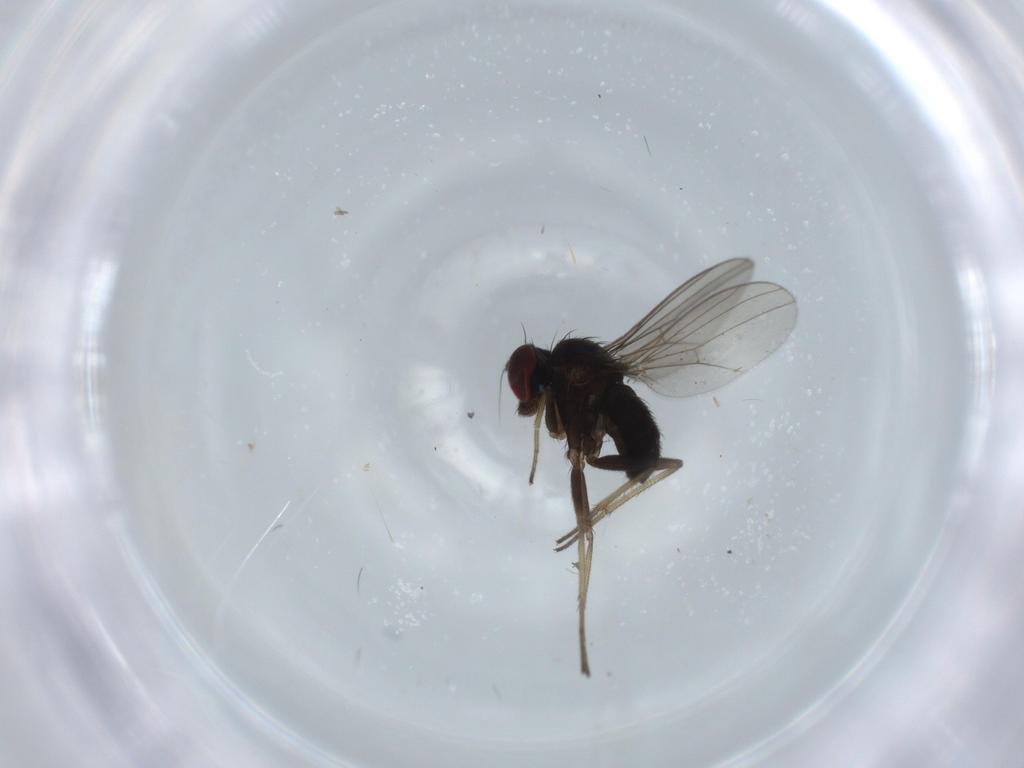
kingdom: Animalia
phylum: Arthropoda
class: Insecta
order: Diptera
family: Dolichopodidae
